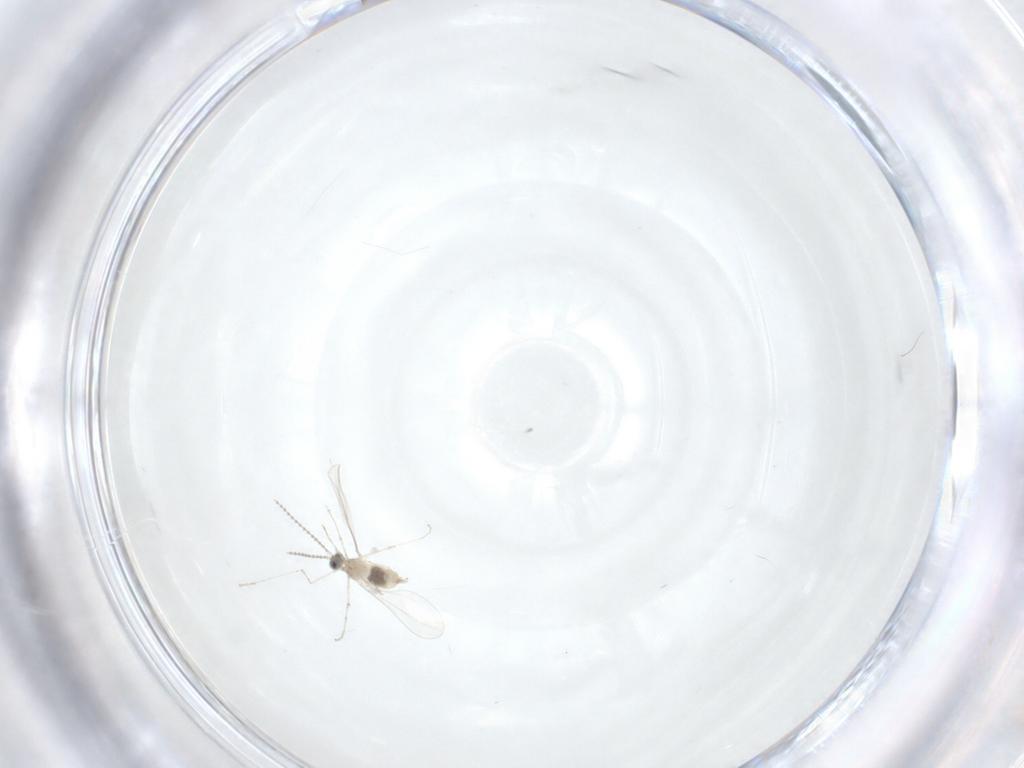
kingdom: Animalia
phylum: Arthropoda
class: Insecta
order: Diptera
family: Cecidomyiidae
